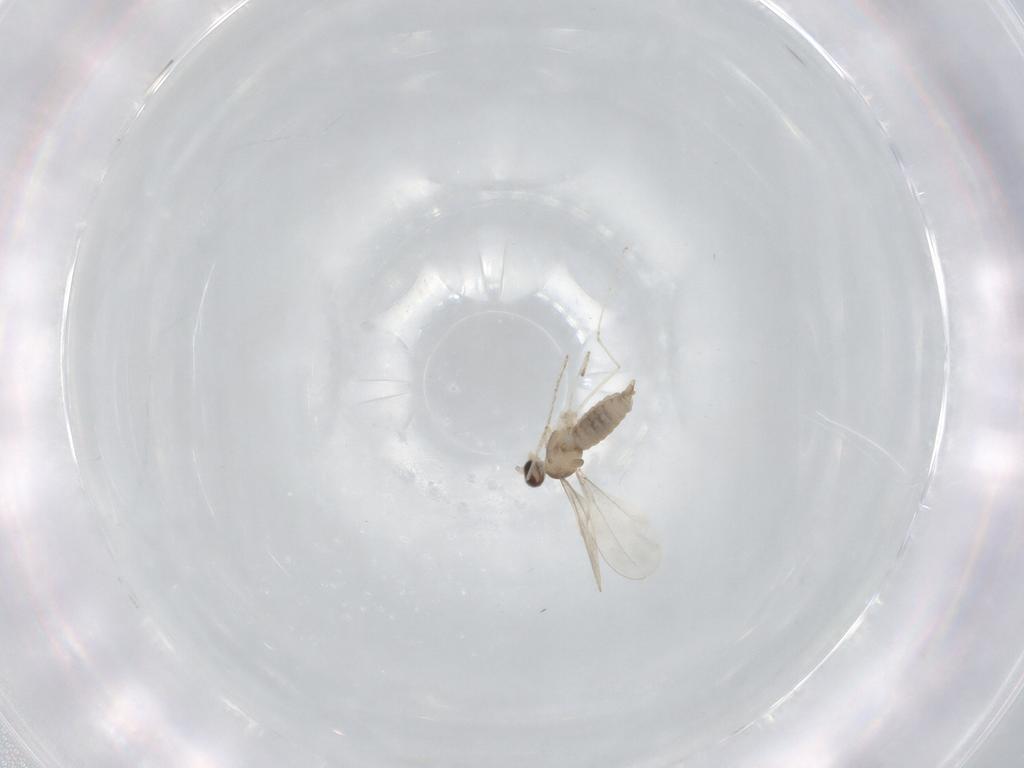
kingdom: Animalia
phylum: Arthropoda
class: Insecta
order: Diptera
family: Cecidomyiidae
